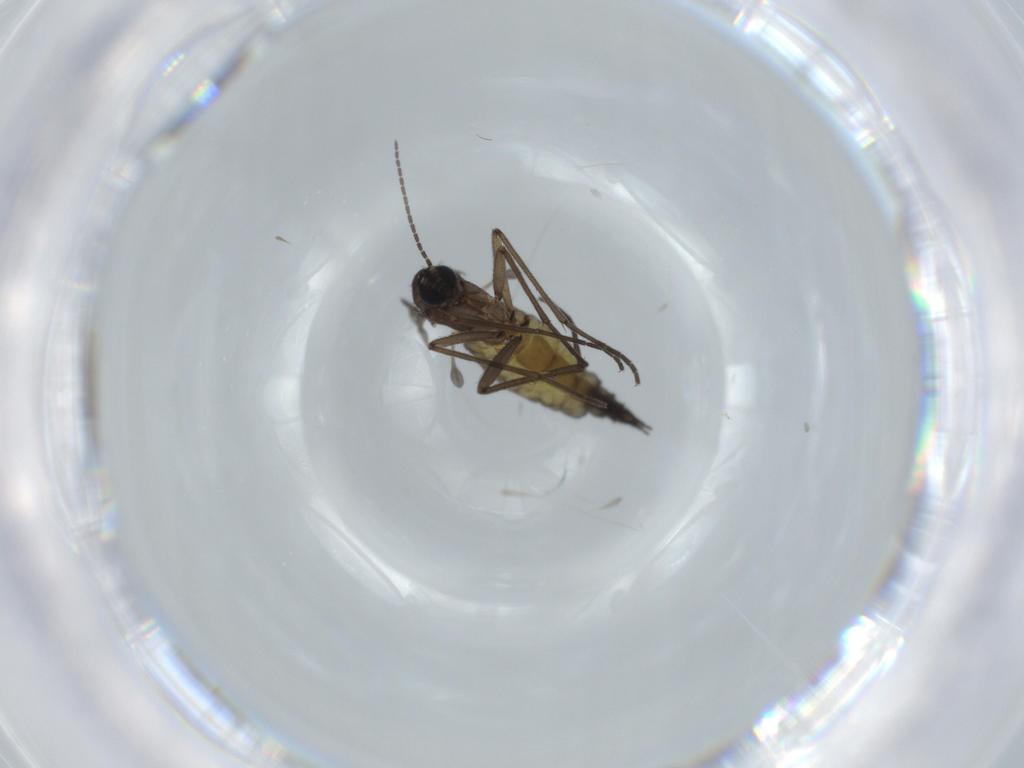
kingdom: Animalia
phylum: Arthropoda
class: Insecta
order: Diptera
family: Sciaridae
